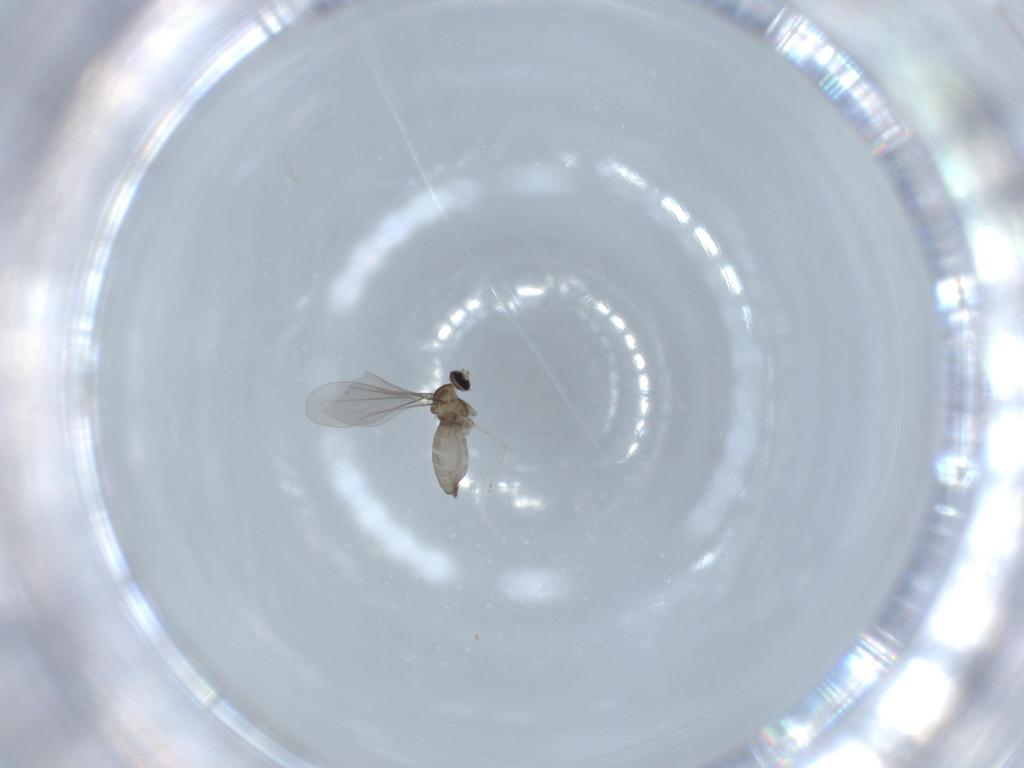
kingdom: Animalia
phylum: Arthropoda
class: Insecta
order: Diptera
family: Cecidomyiidae
